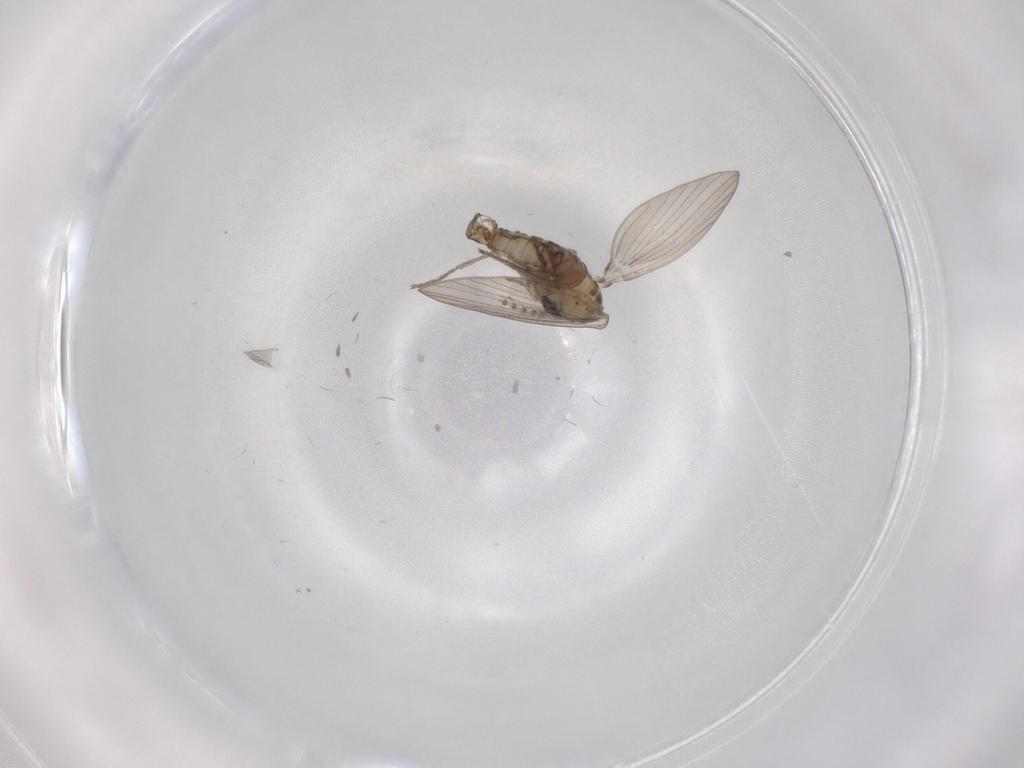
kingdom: Animalia
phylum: Arthropoda
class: Insecta
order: Diptera
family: Psychodidae
